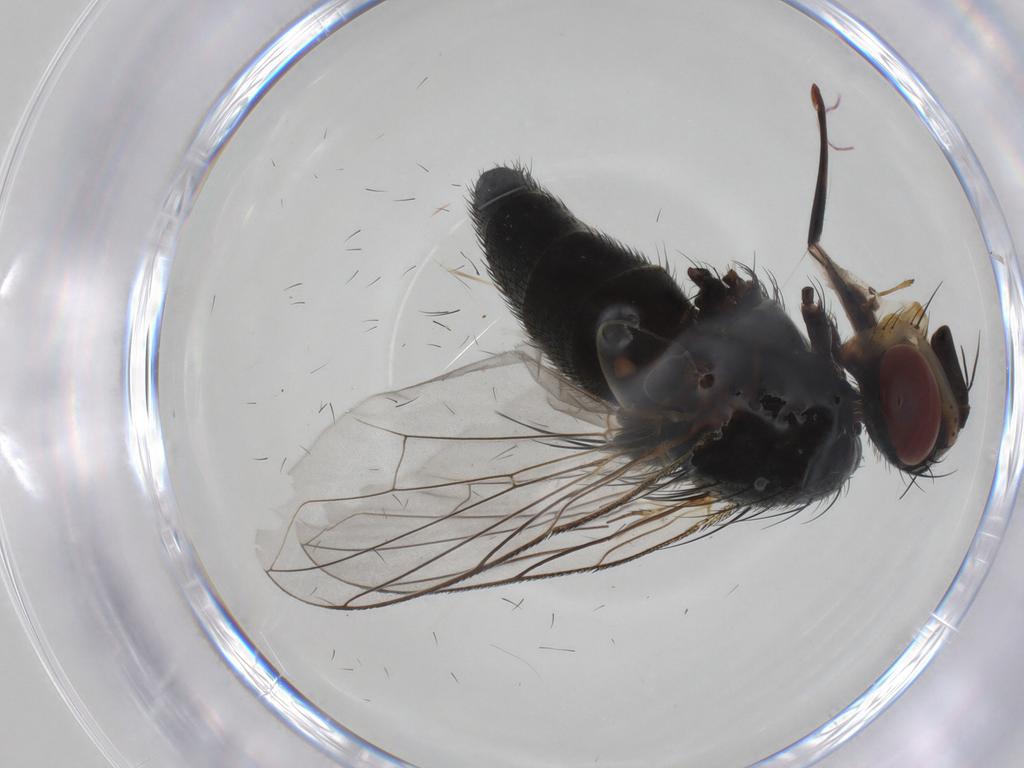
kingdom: Animalia
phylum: Arthropoda
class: Insecta
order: Diptera
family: Tachinidae
